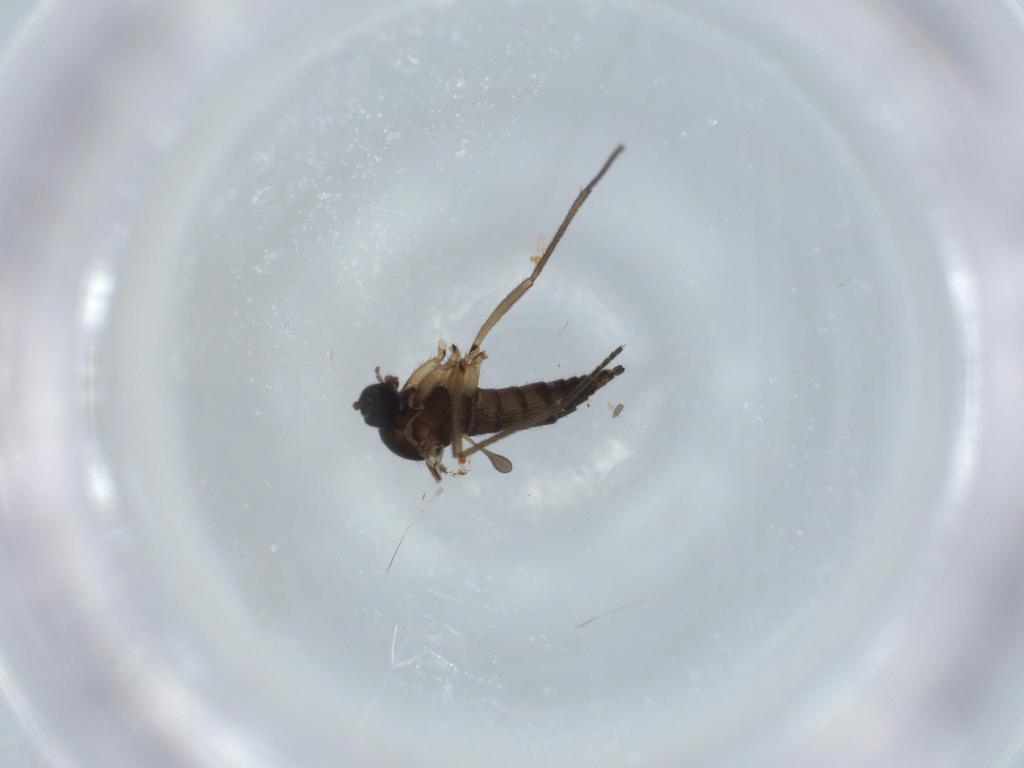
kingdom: Animalia
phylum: Arthropoda
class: Insecta
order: Diptera
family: Sciaridae
